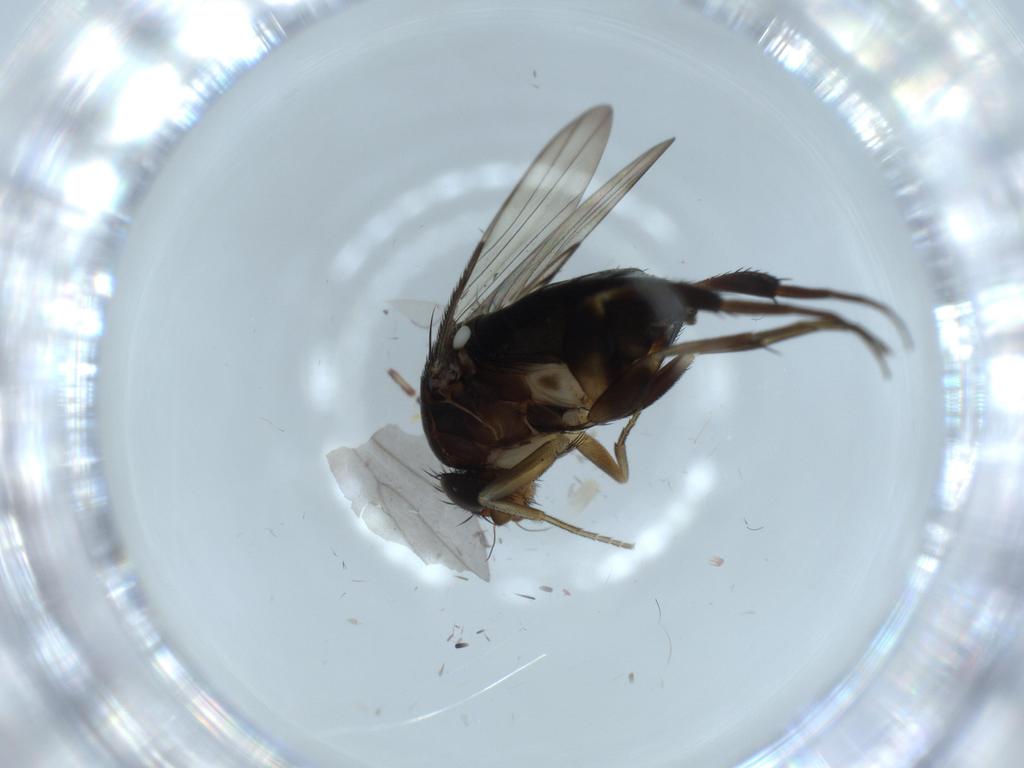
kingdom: Animalia
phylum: Arthropoda
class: Insecta
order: Diptera
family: Phoridae
